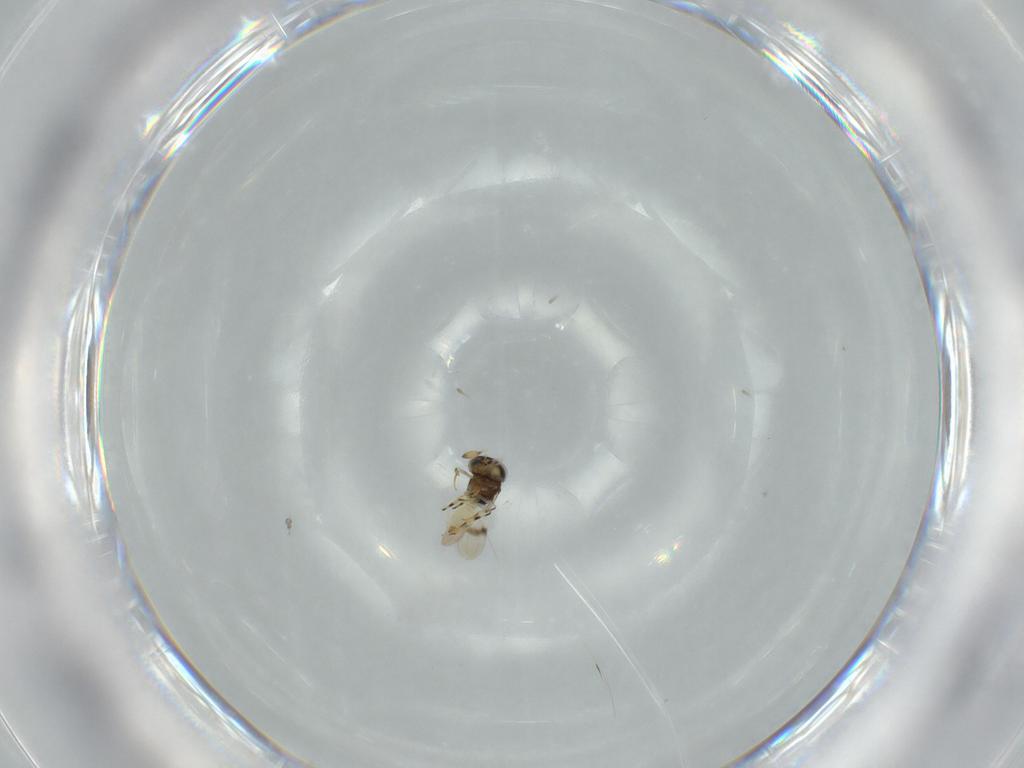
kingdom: Animalia
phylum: Arthropoda
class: Insecta
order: Hymenoptera
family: Scelionidae
